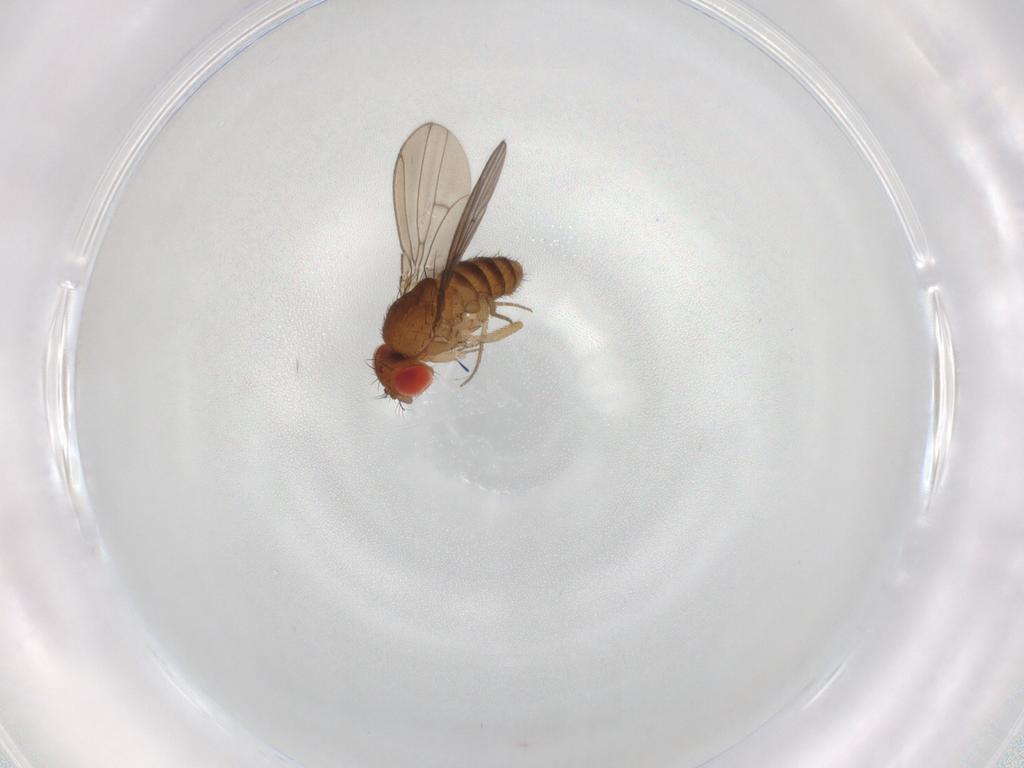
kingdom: Animalia
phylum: Arthropoda
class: Insecta
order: Diptera
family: Drosophilidae
